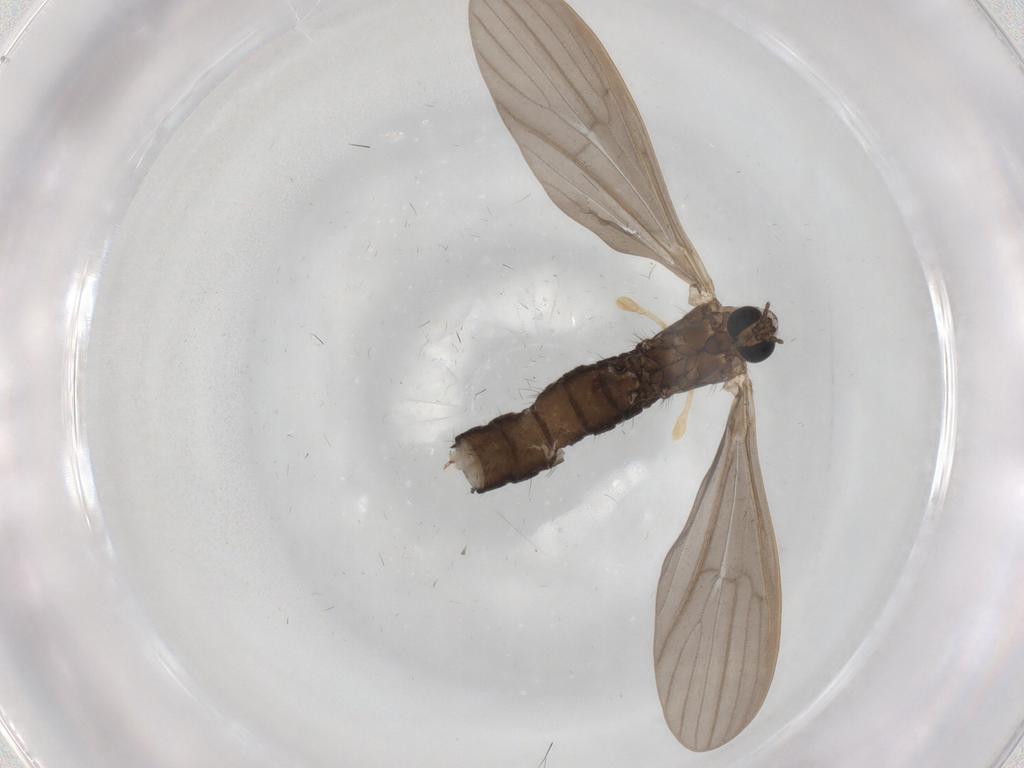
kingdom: Animalia
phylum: Arthropoda
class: Insecta
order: Diptera
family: Limoniidae
